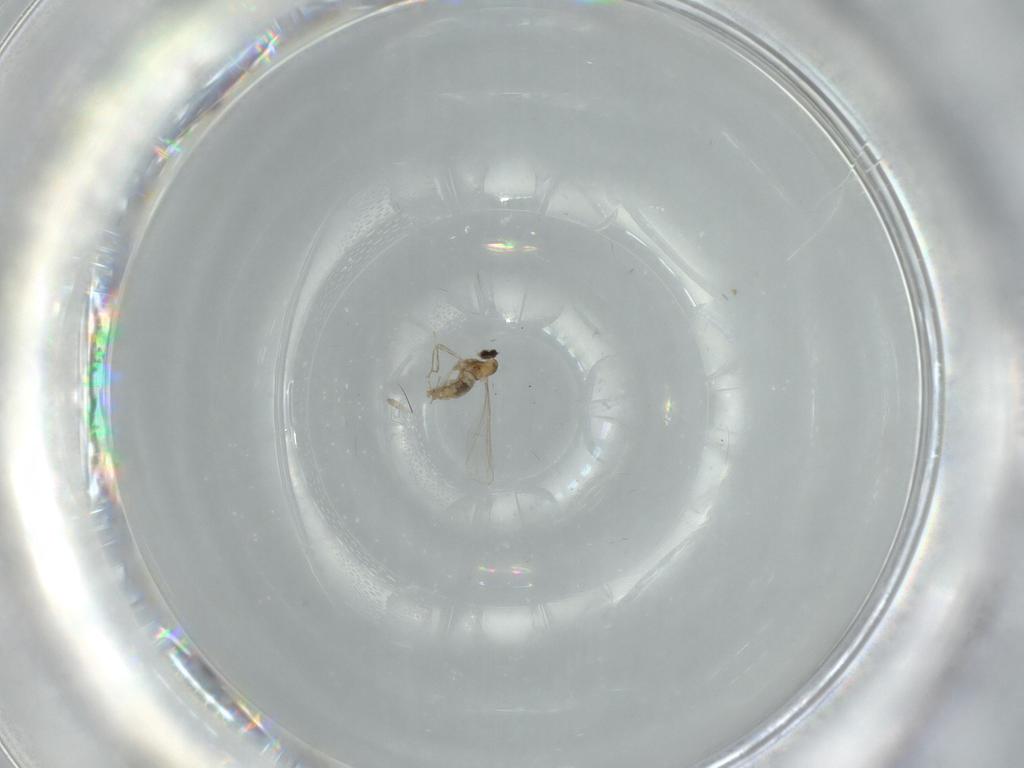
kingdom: Animalia
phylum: Arthropoda
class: Insecta
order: Diptera
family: Cecidomyiidae
